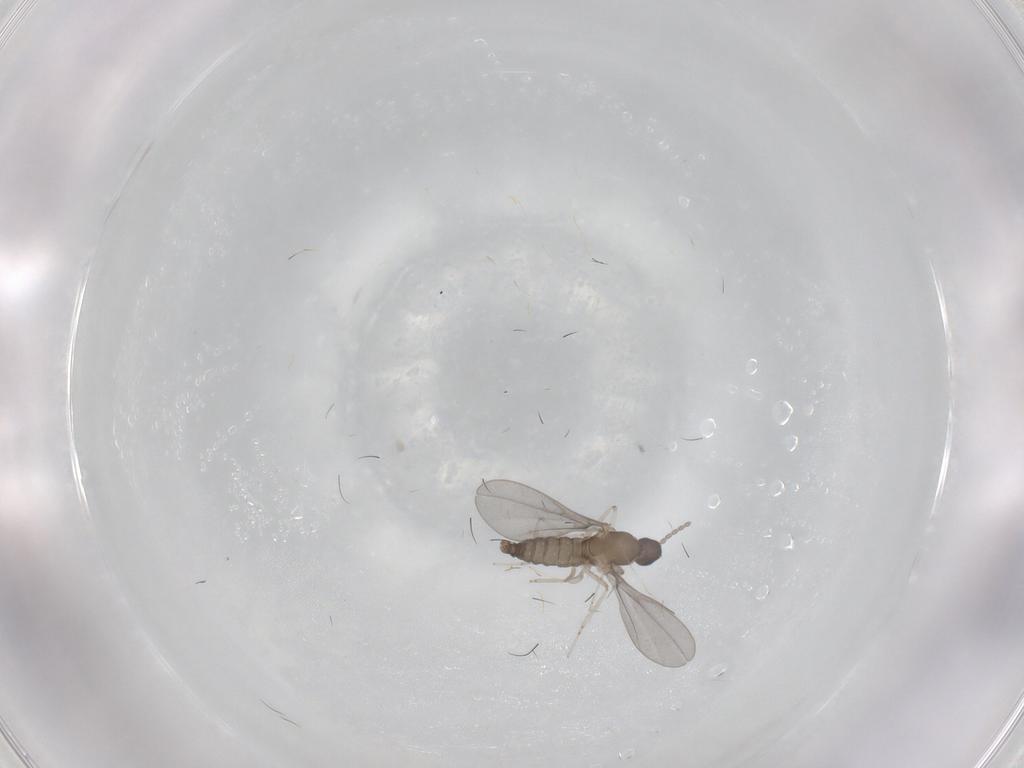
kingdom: Animalia
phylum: Arthropoda
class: Insecta
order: Diptera
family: Cecidomyiidae
